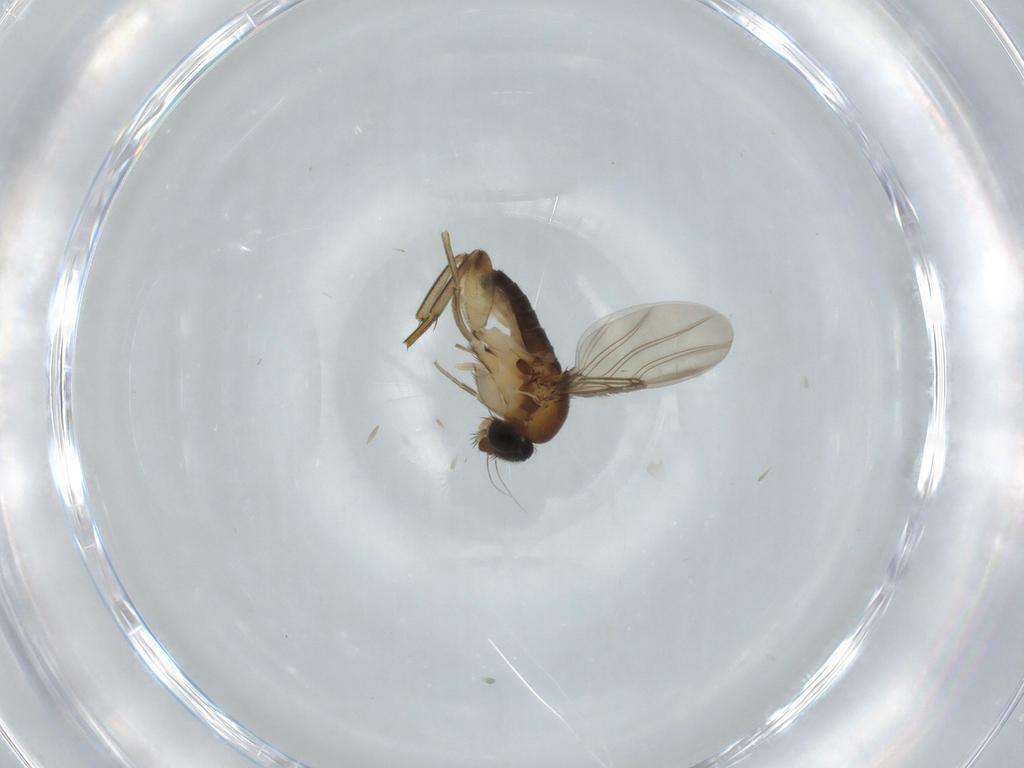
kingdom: Animalia
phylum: Arthropoda
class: Insecta
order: Diptera
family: Phoridae
